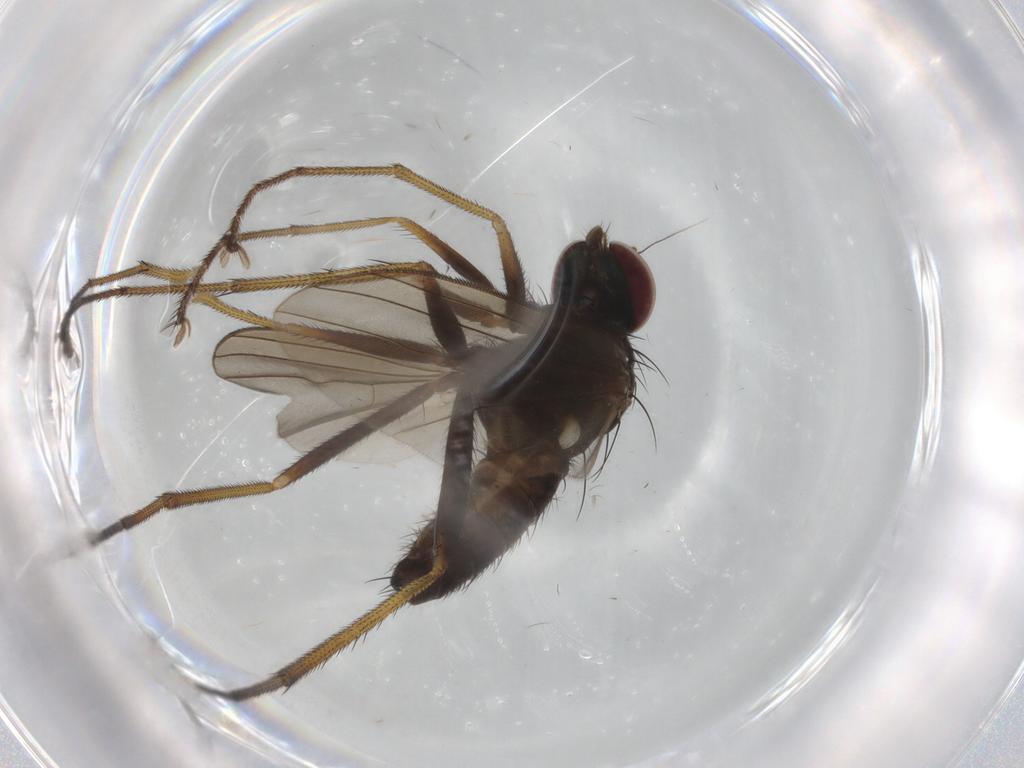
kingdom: Animalia
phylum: Arthropoda
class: Insecta
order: Diptera
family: Dolichopodidae
